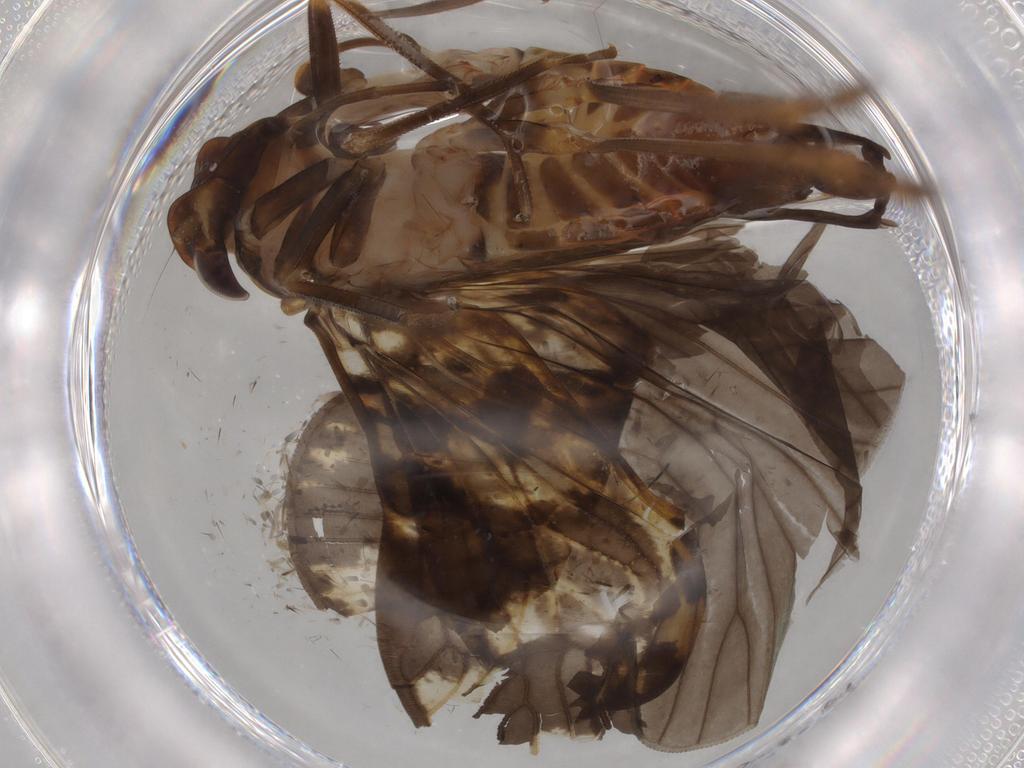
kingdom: Animalia
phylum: Arthropoda
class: Insecta
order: Hemiptera
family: Cixiidae
